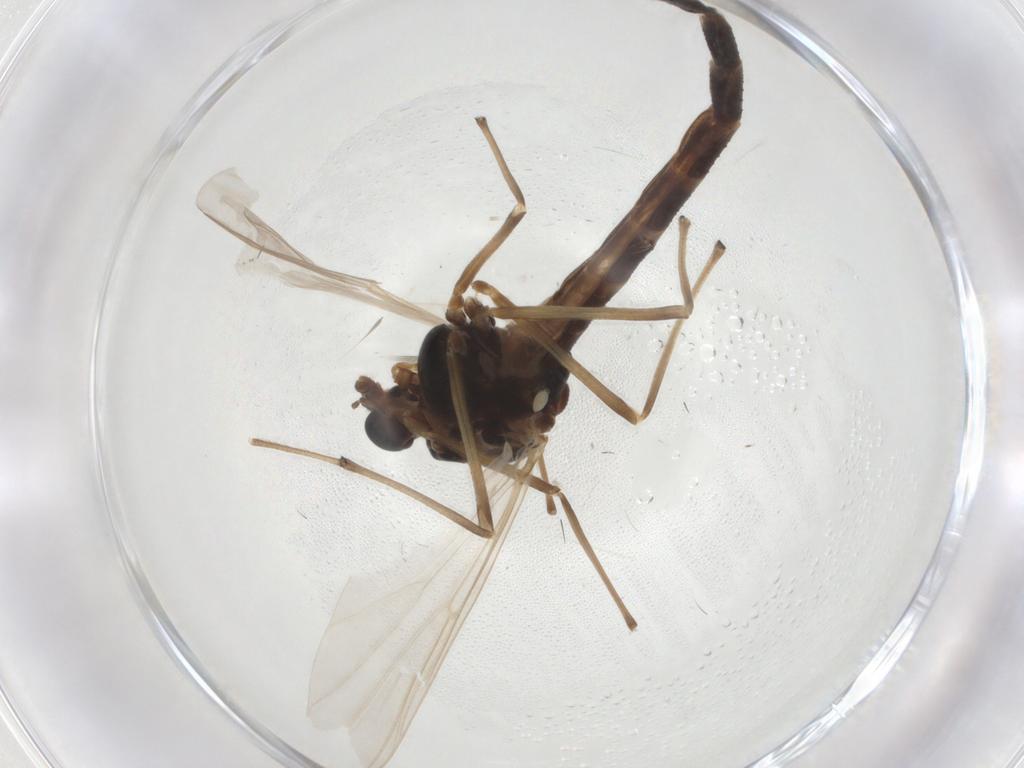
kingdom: Animalia
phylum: Arthropoda
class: Insecta
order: Diptera
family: Chironomidae
